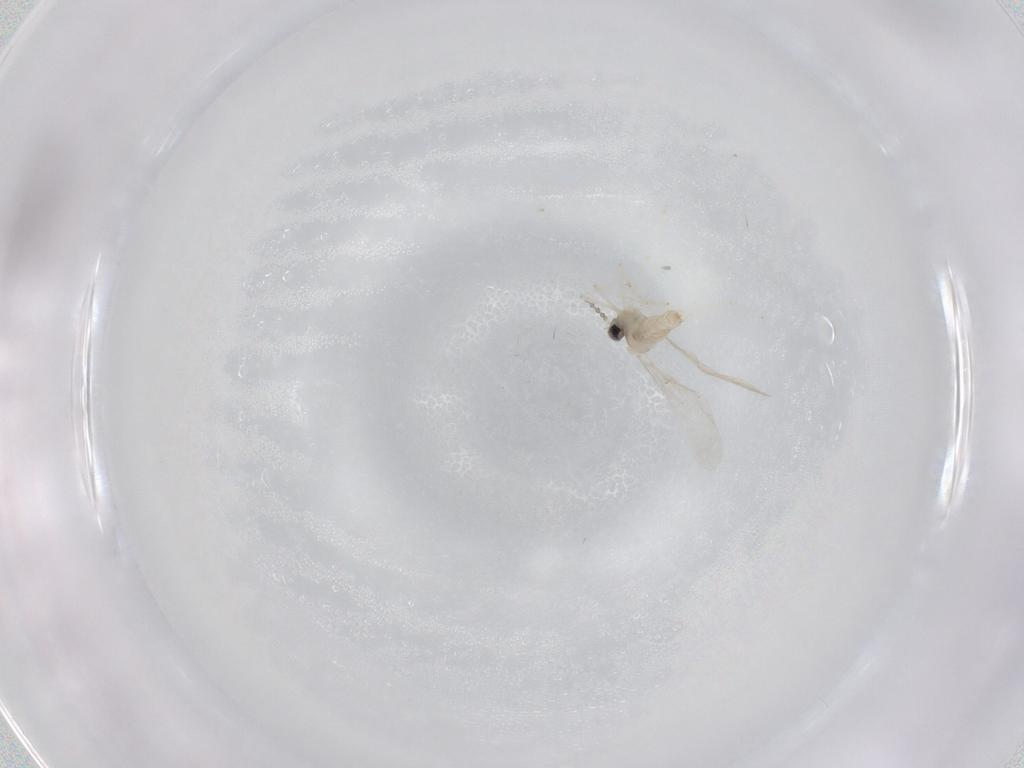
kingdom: Animalia
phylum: Arthropoda
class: Insecta
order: Diptera
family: Limoniidae
